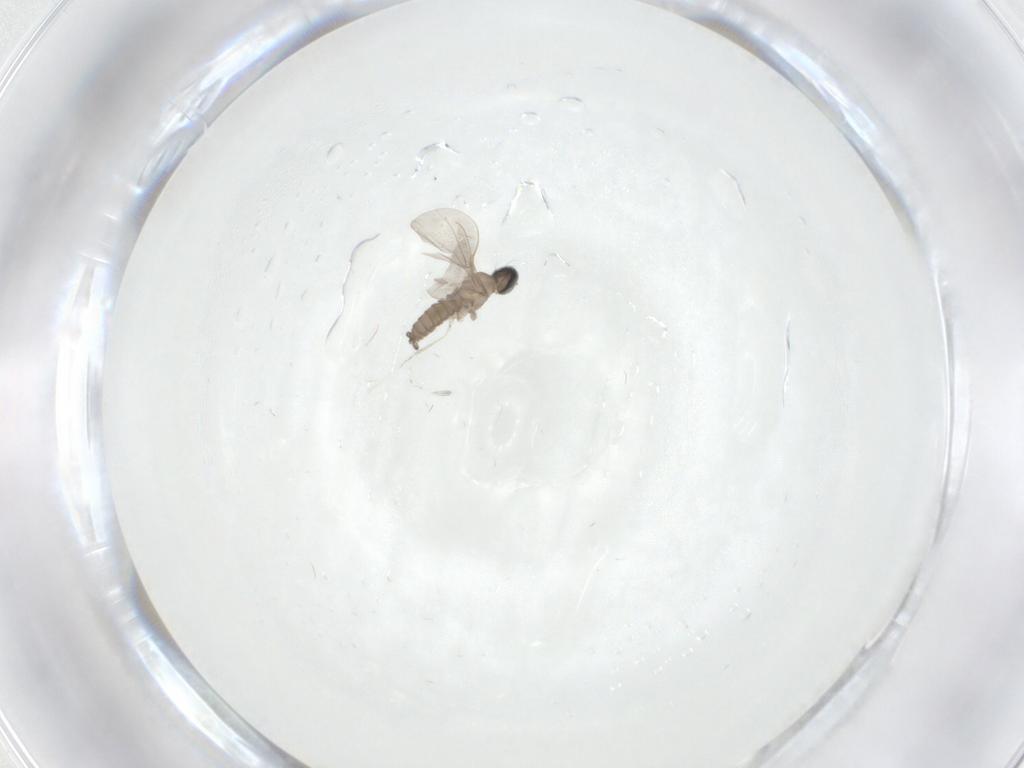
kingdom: Animalia
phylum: Arthropoda
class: Insecta
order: Diptera
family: Cecidomyiidae
